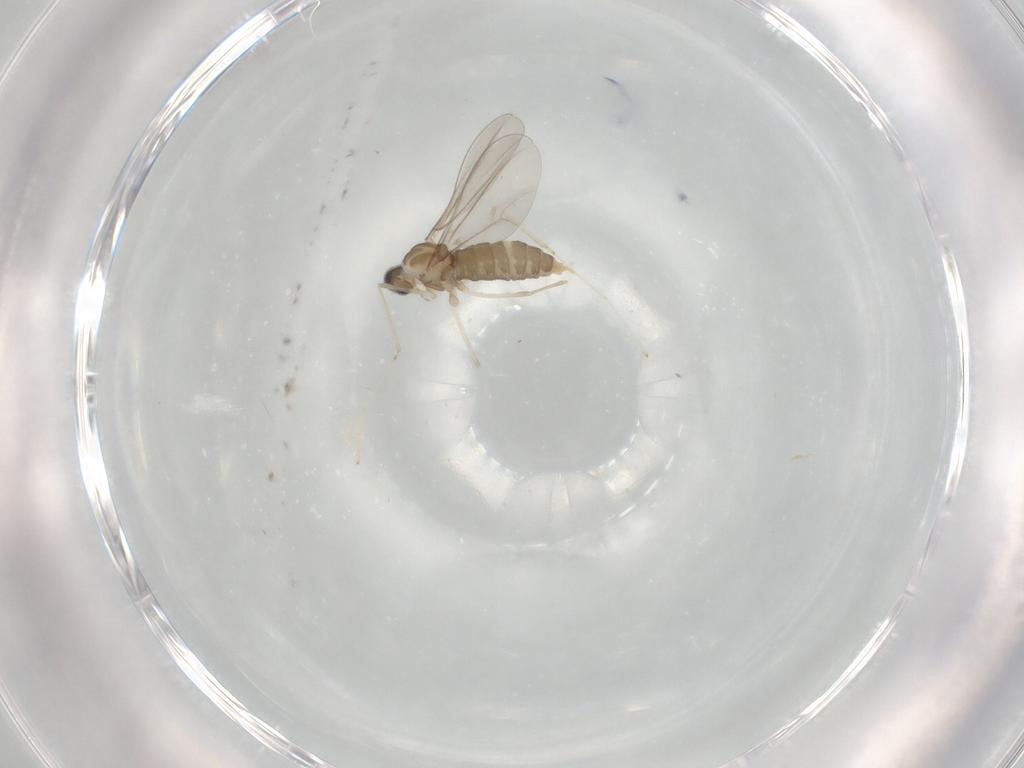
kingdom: Animalia
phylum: Arthropoda
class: Insecta
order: Diptera
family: Cecidomyiidae
